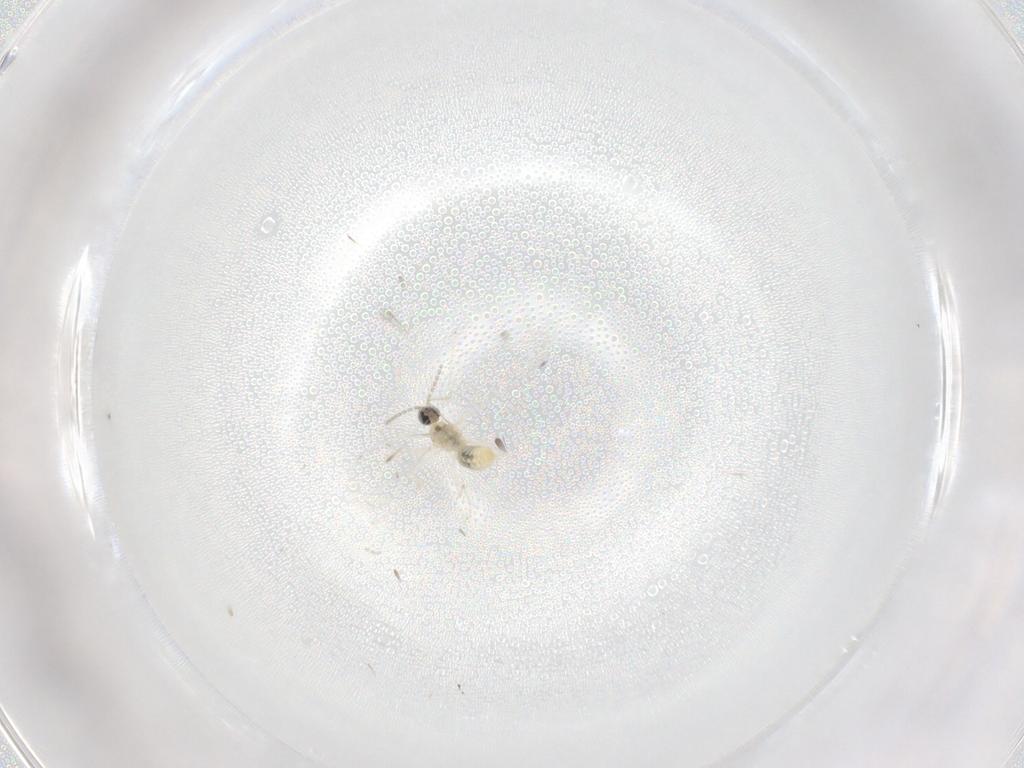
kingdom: Animalia
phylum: Arthropoda
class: Insecta
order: Diptera
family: Cecidomyiidae
